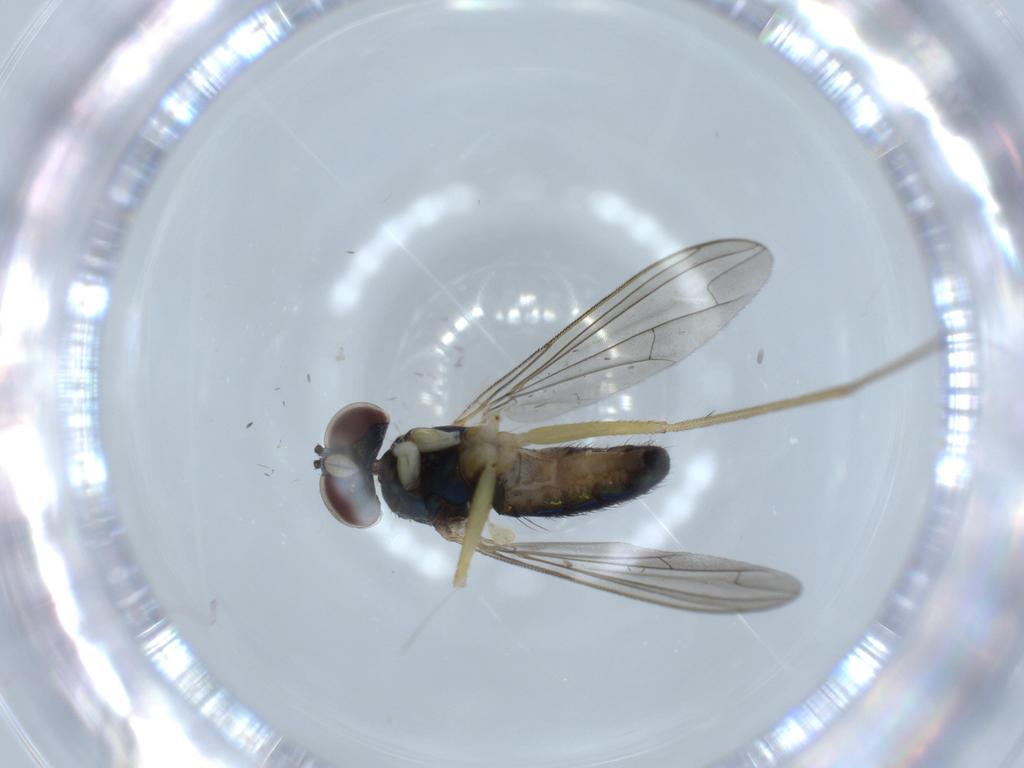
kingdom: Animalia
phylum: Arthropoda
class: Insecta
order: Diptera
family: Dolichopodidae
